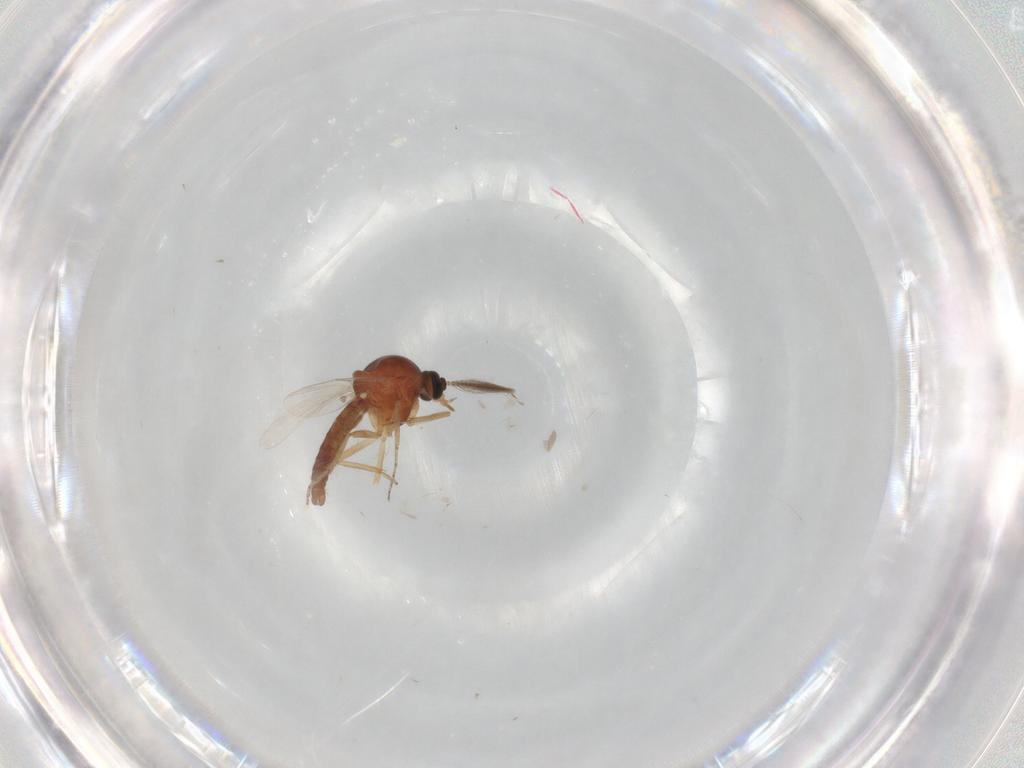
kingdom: Animalia
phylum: Arthropoda
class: Insecta
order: Diptera
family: Ceratopogonidae
